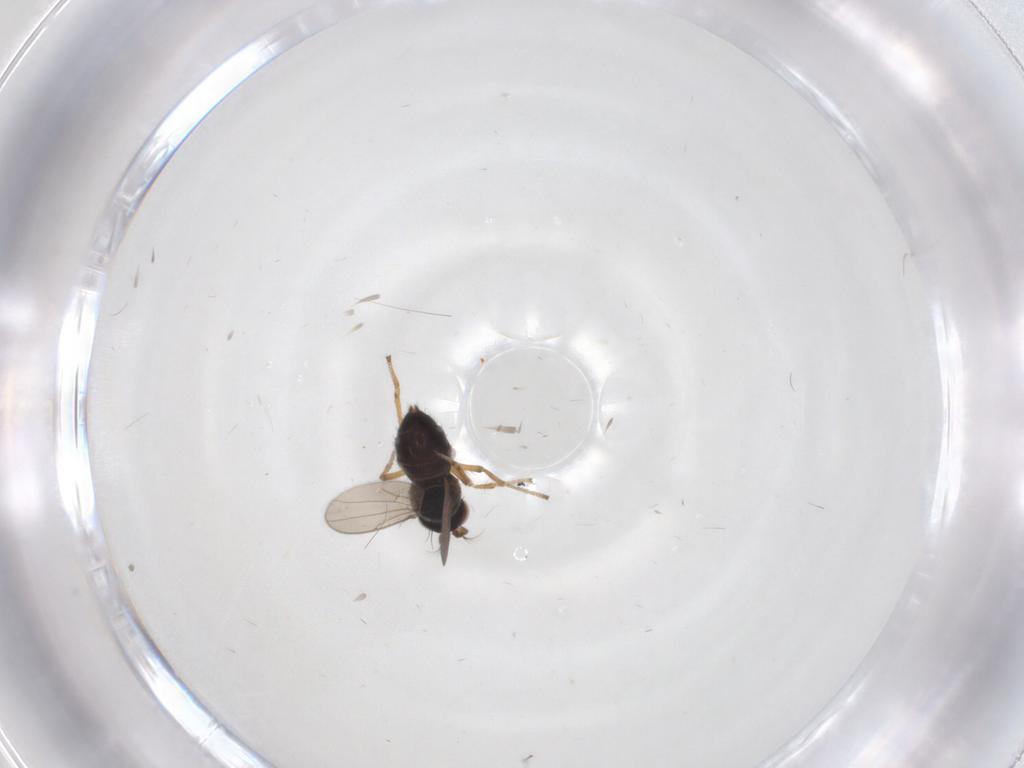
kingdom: Animalia
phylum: Arthropoda
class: Insecta
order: Diptera
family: Ephydridae
